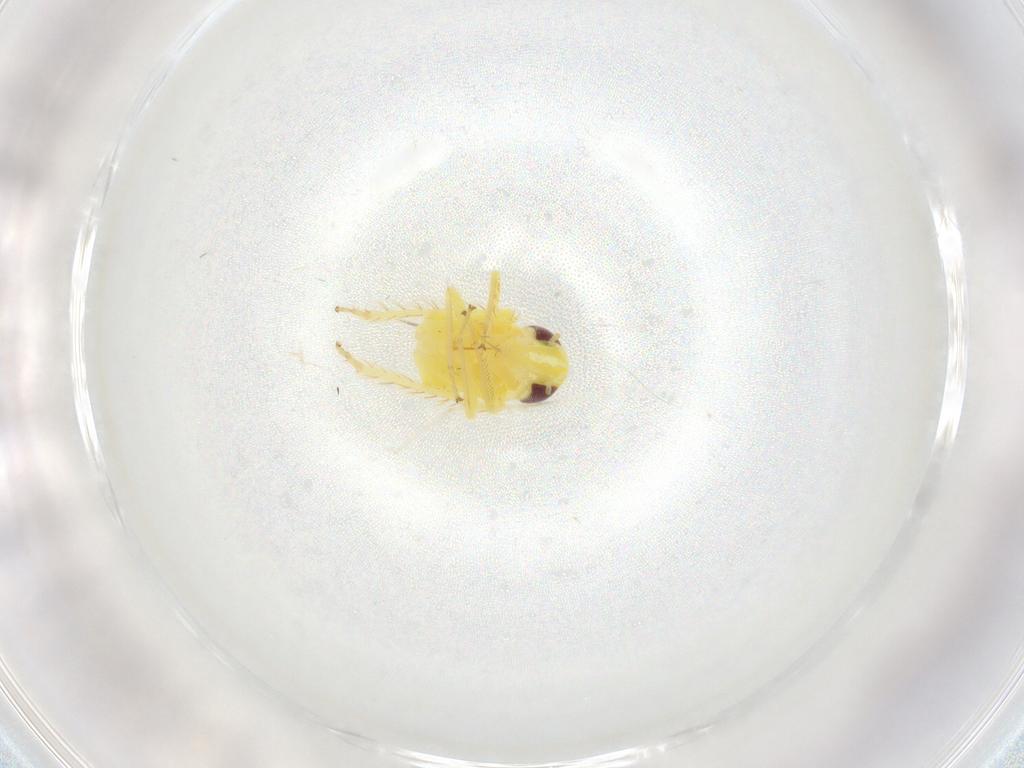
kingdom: Animalia
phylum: Arthropoda
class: Insecta
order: Hemiptera
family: Cicadellidae
